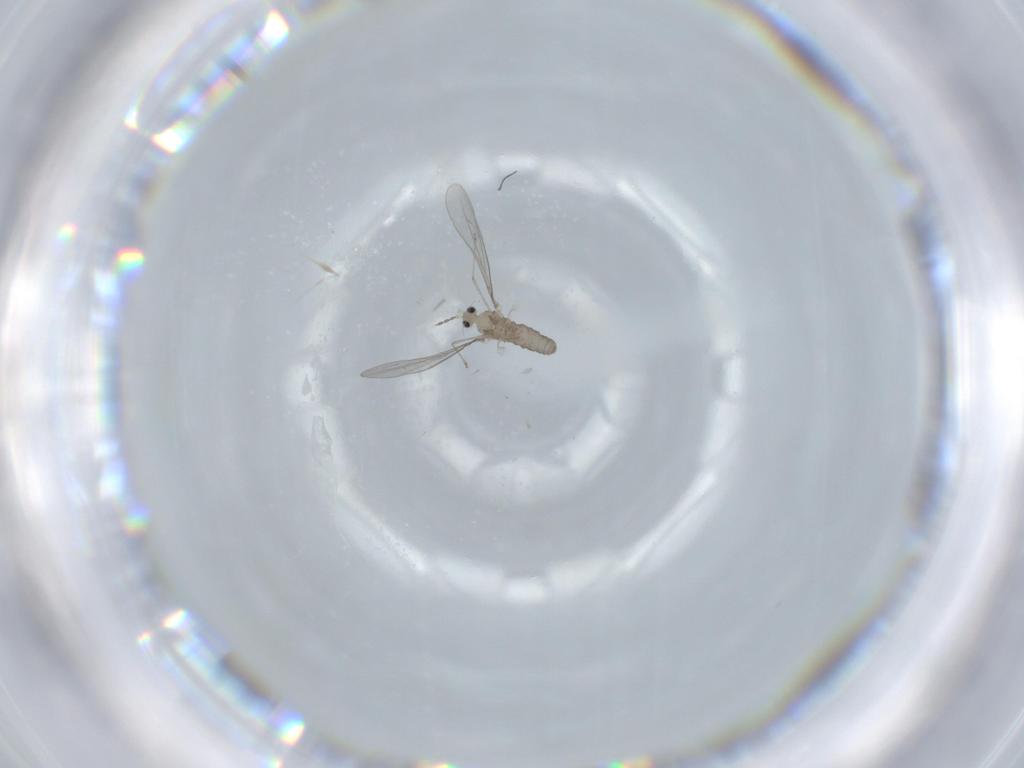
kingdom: Animalia
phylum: Arthropoda
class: Insecta
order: Diptera
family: Cecidomyiidae
